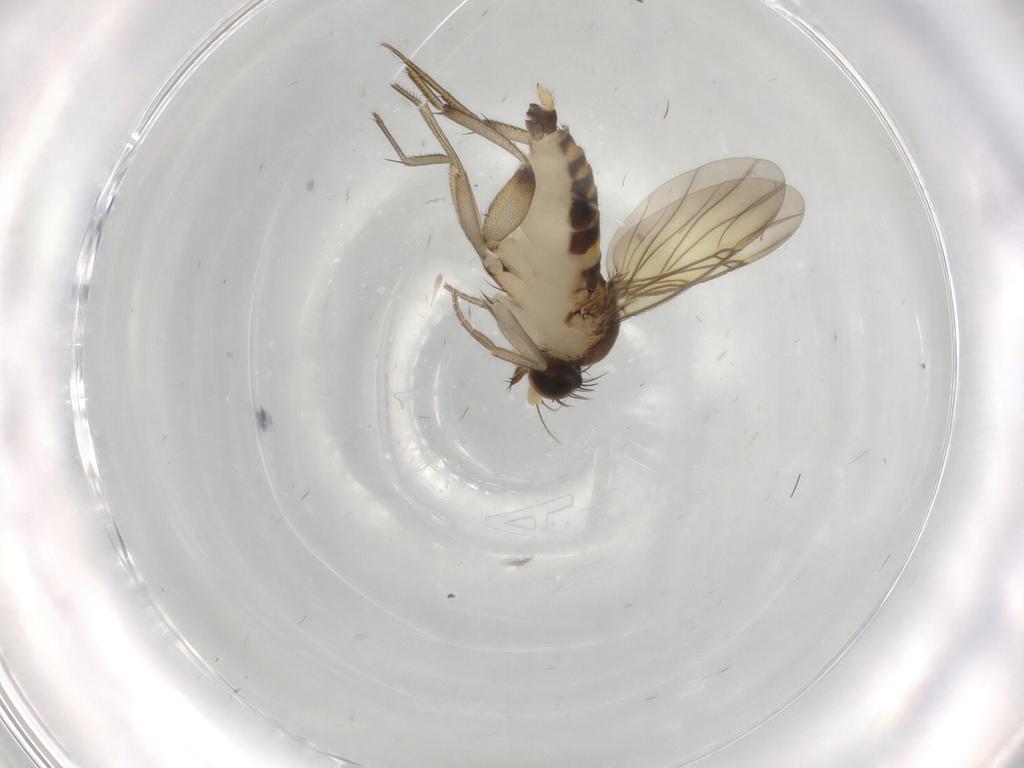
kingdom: Animalia
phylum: Arthropoda
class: Insecta
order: Diptera
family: Phoridae
